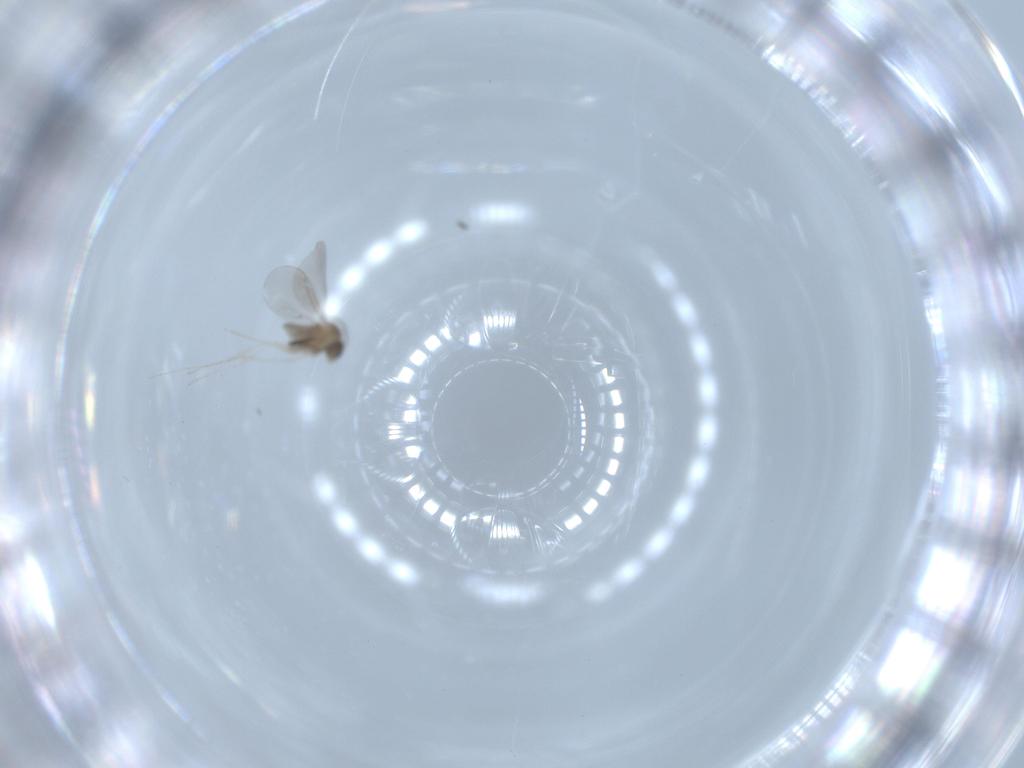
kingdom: Animalia
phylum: Arthropoda
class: Insecta
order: Diptera
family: Cecidomyiidae
